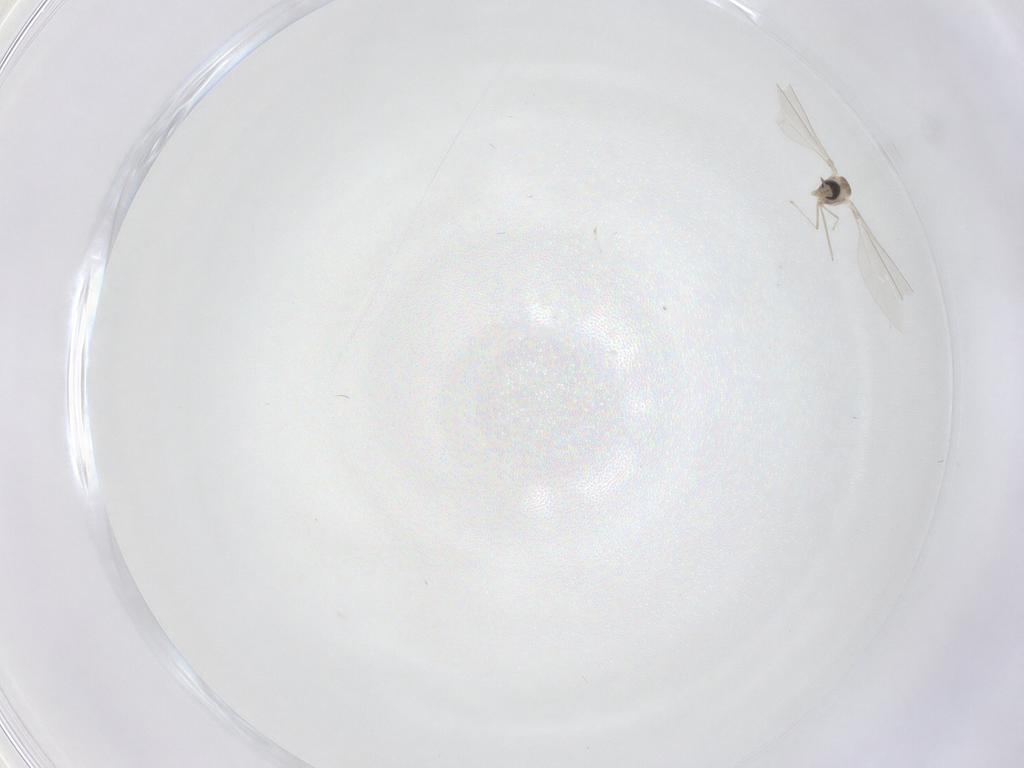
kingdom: Animalia
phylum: Arthropoda
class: Insecta
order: Diptera
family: Cecidomyiidae
